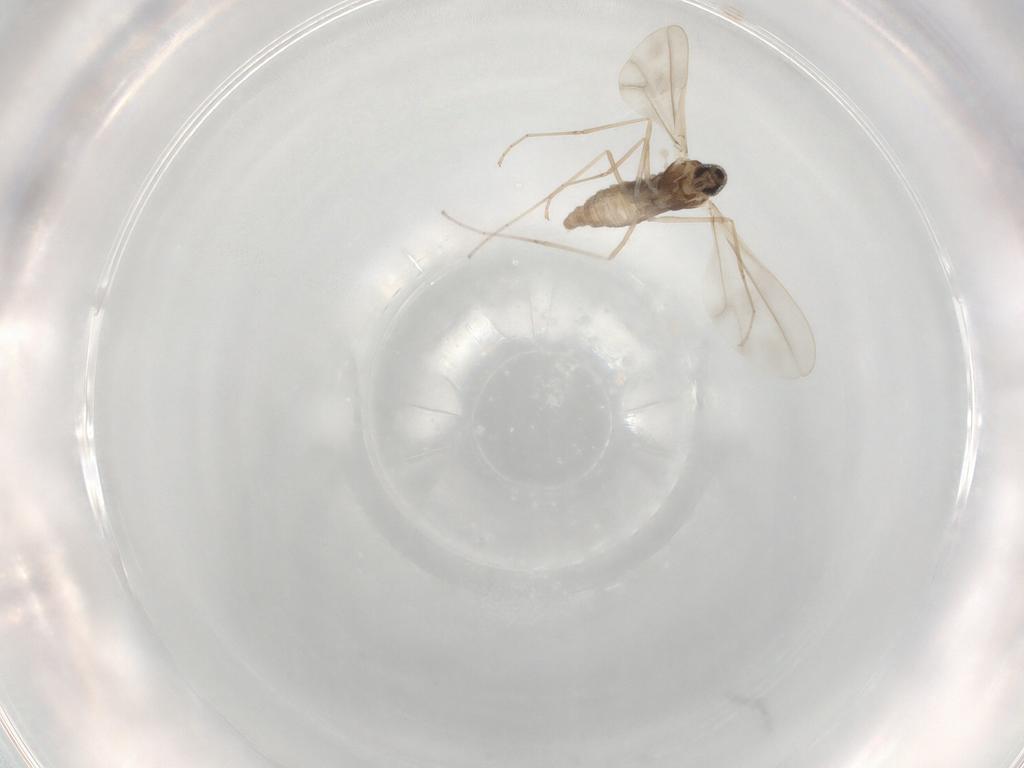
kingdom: Animalia
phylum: Arthropoda
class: Insecta
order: Diptera
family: Cecidomyiidae
